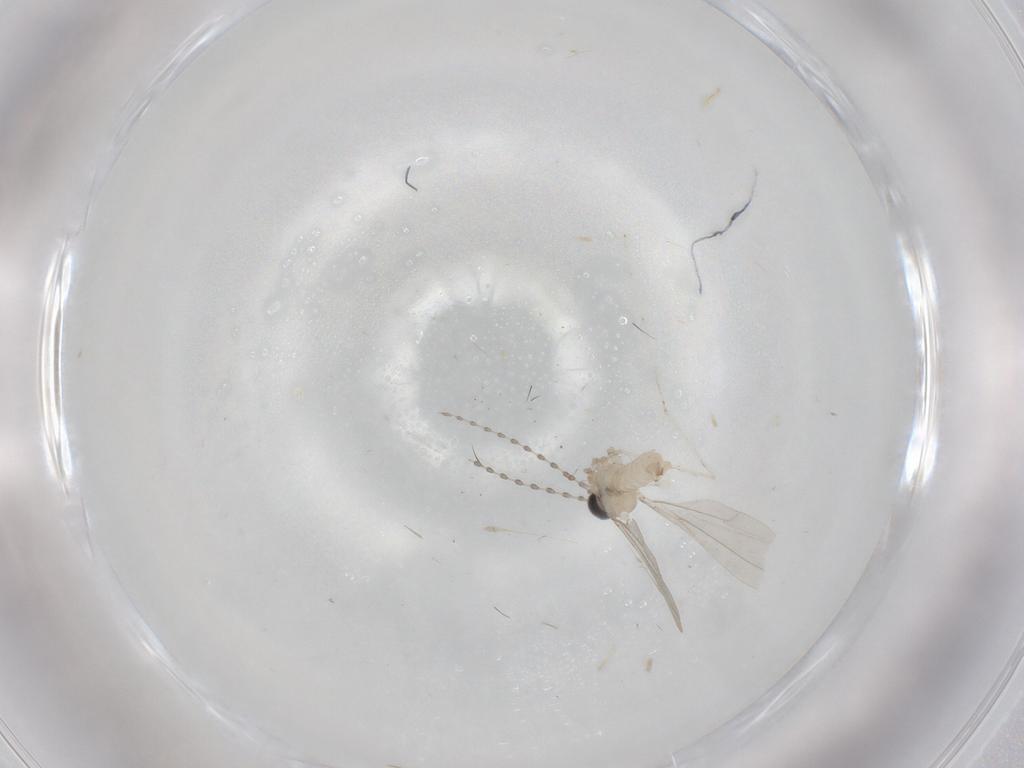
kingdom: Animalia
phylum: Arthropoda
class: Insecta
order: Diptera
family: Cecidomyiidae
